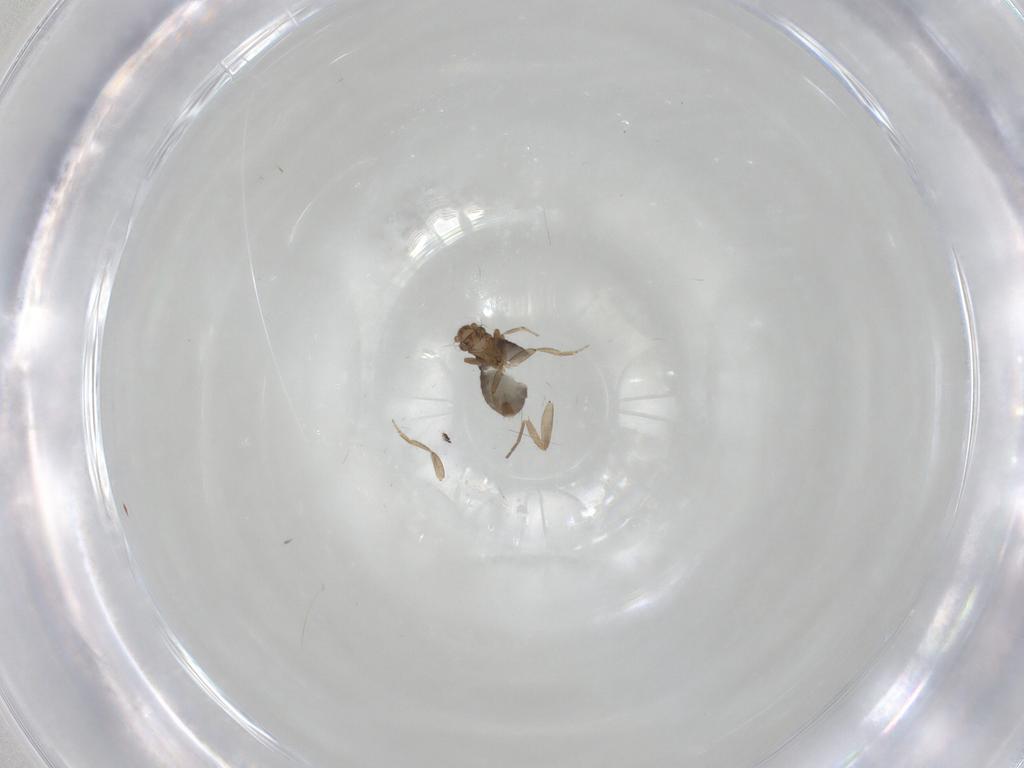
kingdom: Animalia
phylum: Arthropoda
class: Insecta
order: Diptera
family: Phoridae
